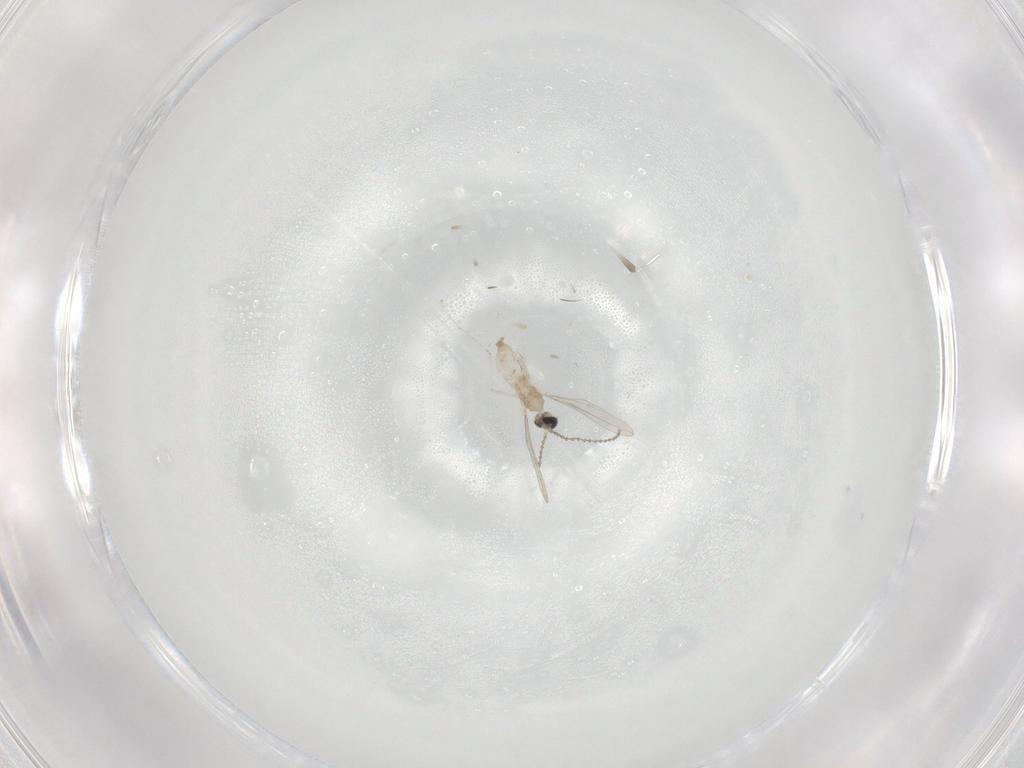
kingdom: Animalia
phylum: Arthropoda
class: Insecta
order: Diptera
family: Cecidomyiidae
